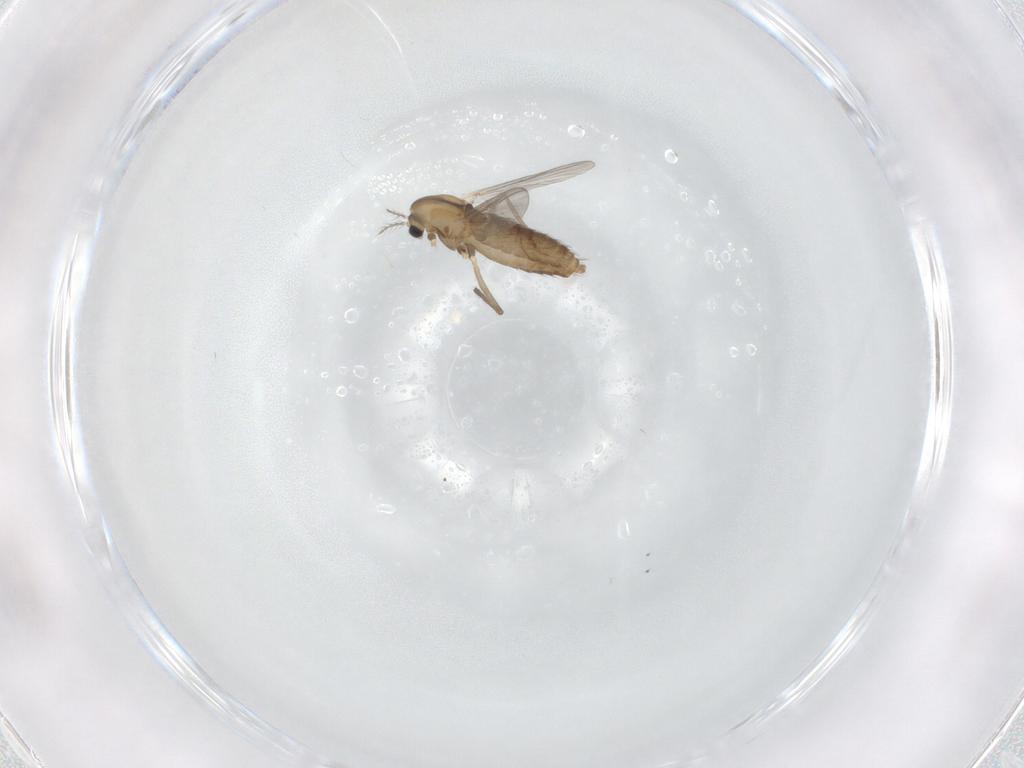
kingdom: Animalia
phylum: Arthropoda
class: Insecta
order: Diptera
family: Chironomidae
